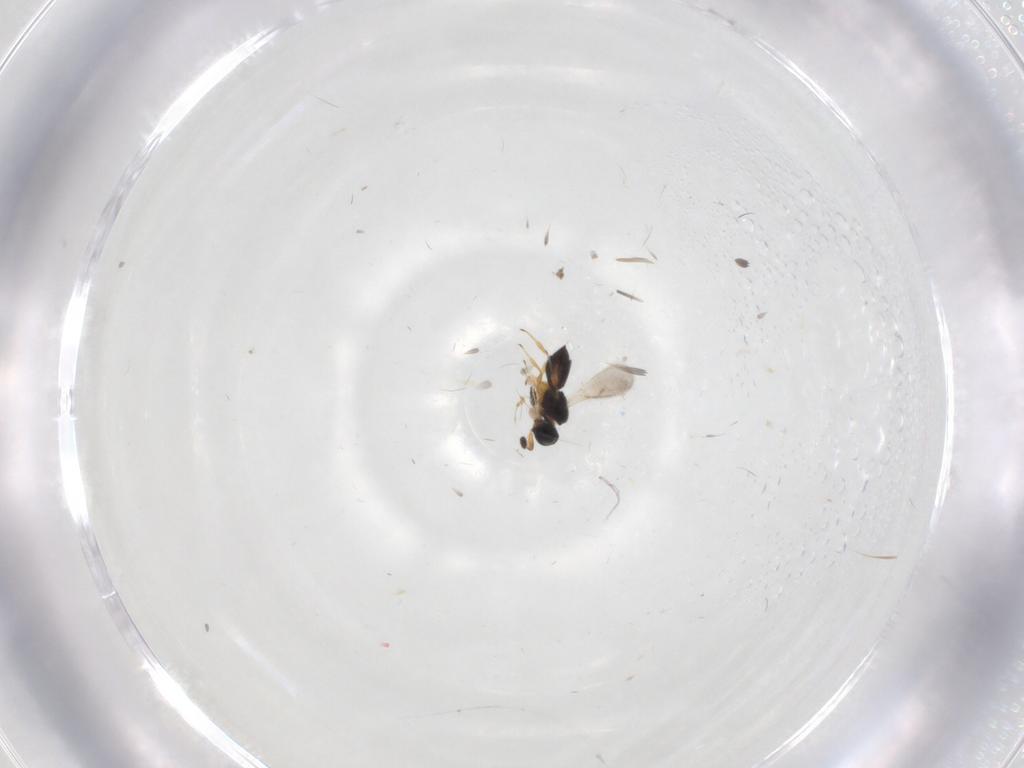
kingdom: Animalia
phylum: Arthropoda
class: Insecta
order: Hymenoptera
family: Scelionidae
